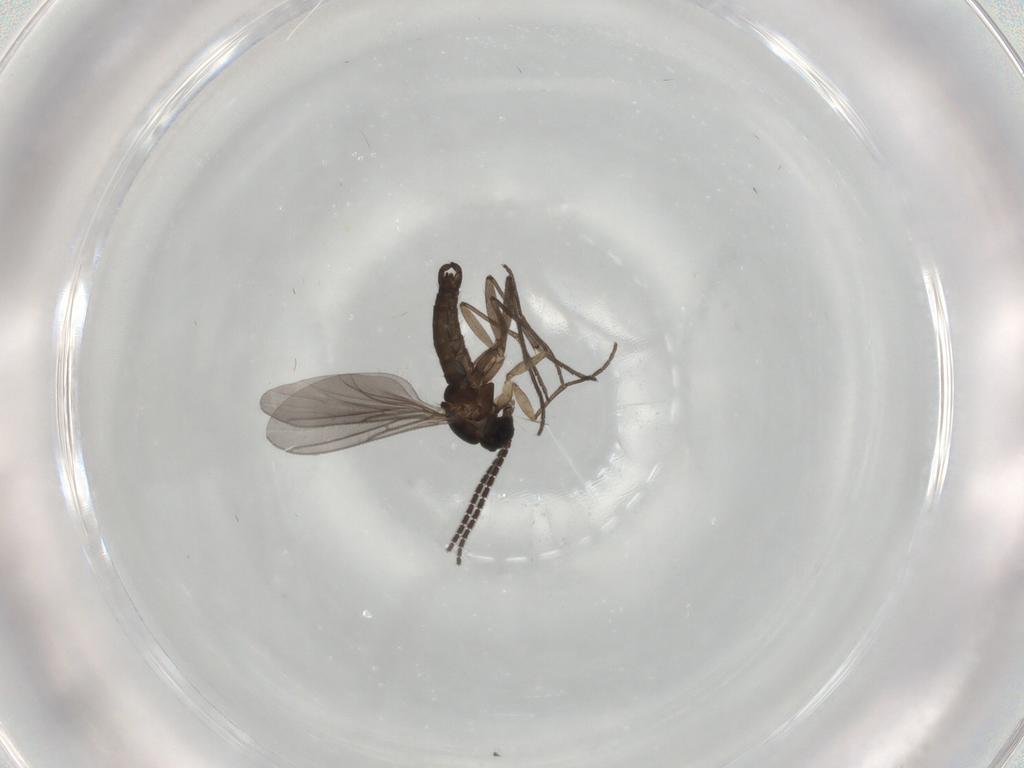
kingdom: Animalia
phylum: Arthropoda
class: Insecta
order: Diptera
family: Sciaridae
